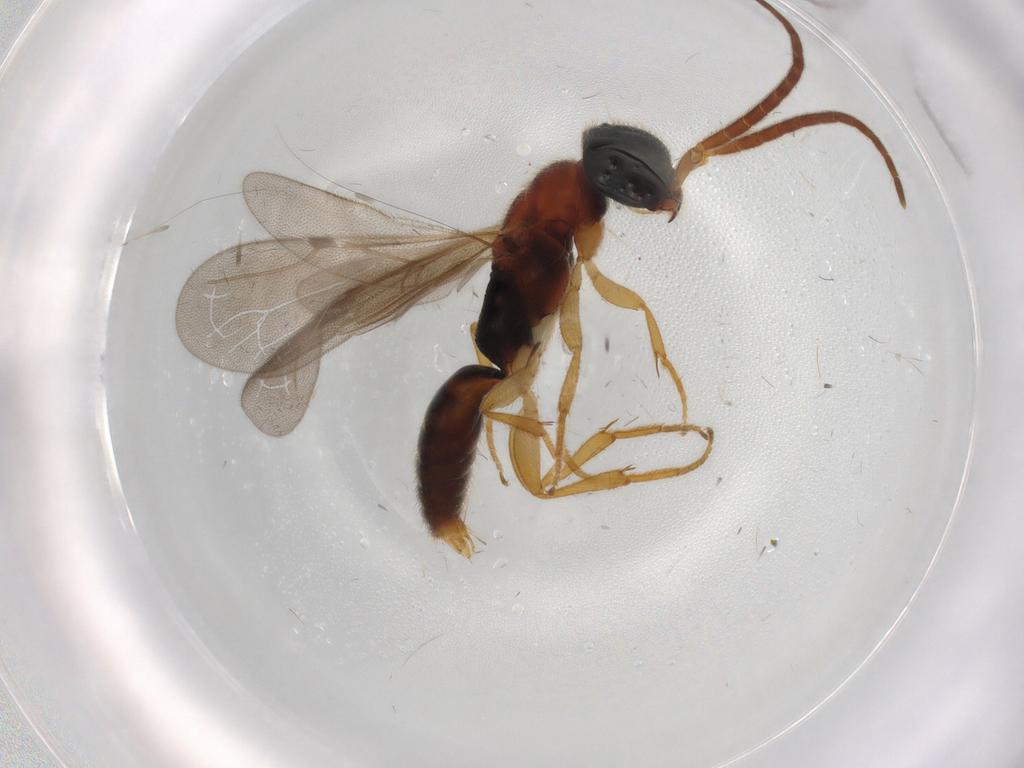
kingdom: Animalia
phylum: Arthropoda
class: Insecta
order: Hymenoptera
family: Bethylidae
